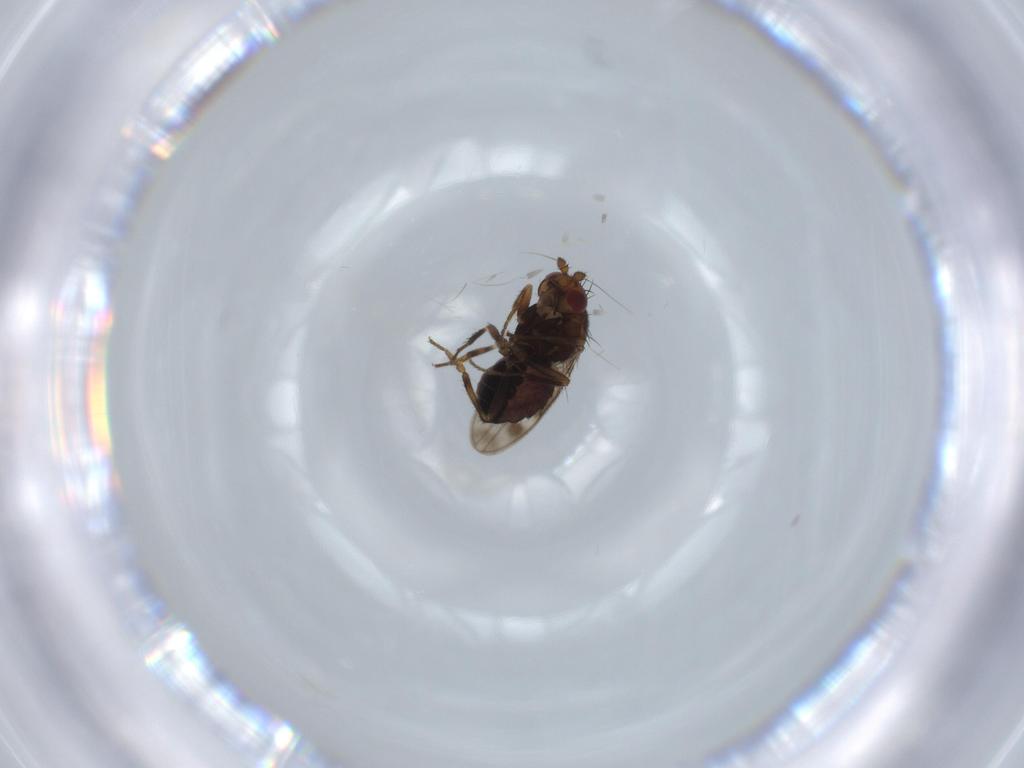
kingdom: Animalia
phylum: Arthropoda
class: Insecta
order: Diptera
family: Sphaeroceridae
